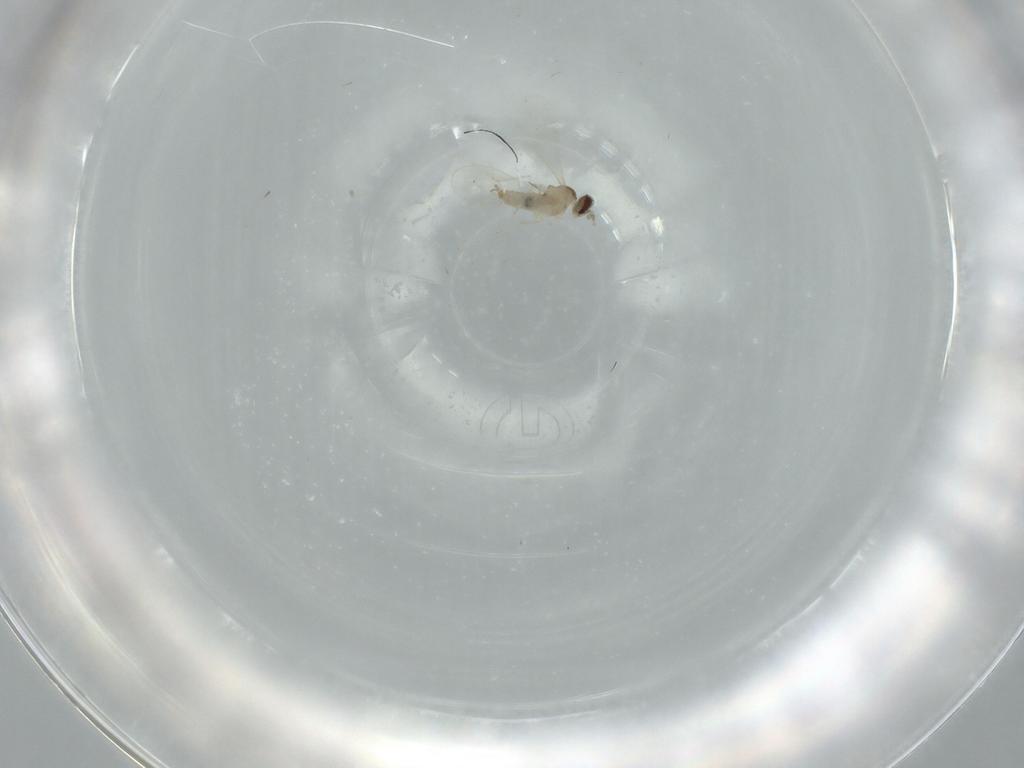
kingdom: Animalia
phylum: Arthropoda
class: Insecta
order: Diptera
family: Cecidomyiidae
